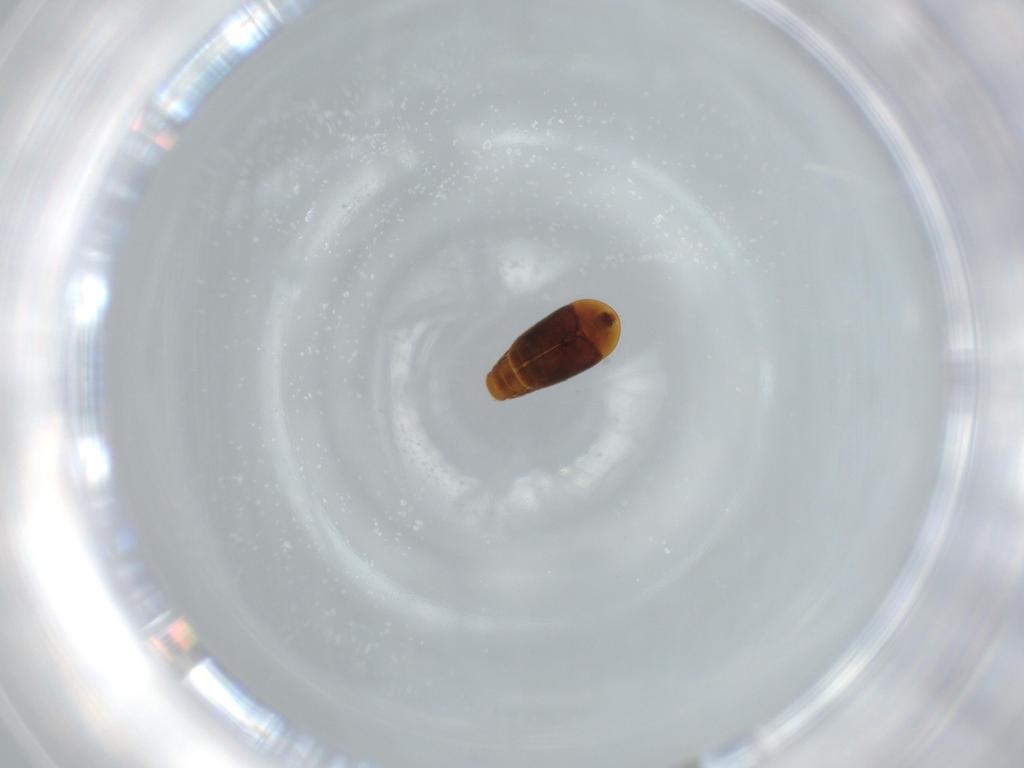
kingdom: Animalia
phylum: Arthropoda
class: Insecta
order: Coleoptera
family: Corylophidae
